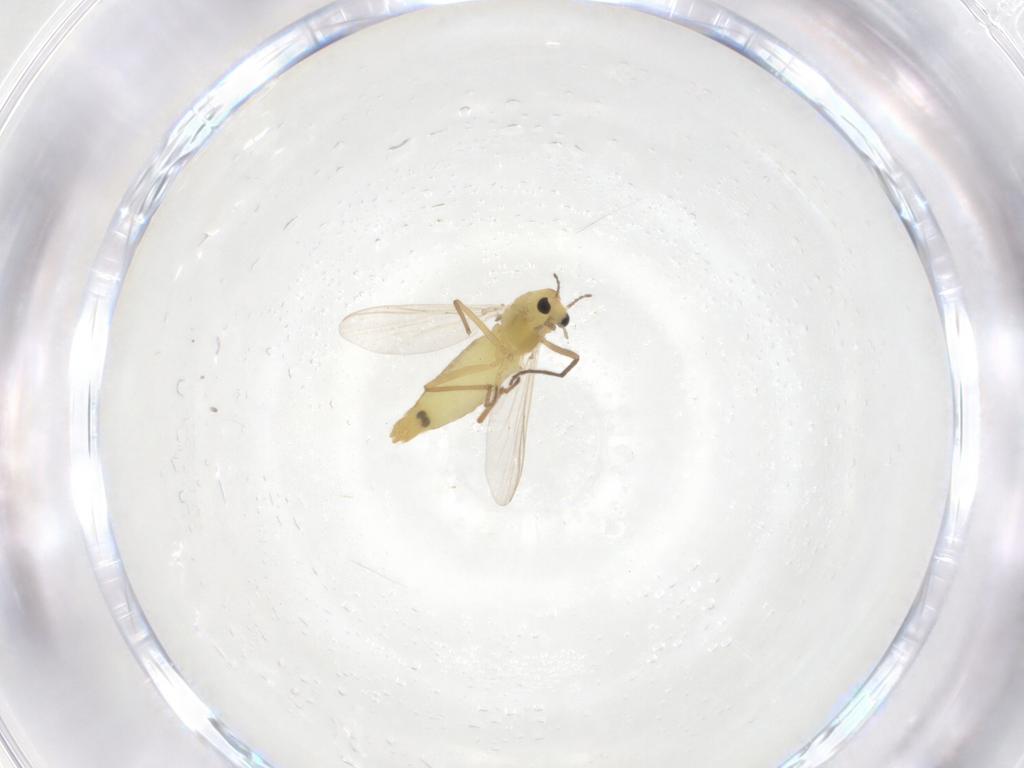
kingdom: Animalia
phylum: Arthropoda
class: Insecta
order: Diptera
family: Chironomidae
